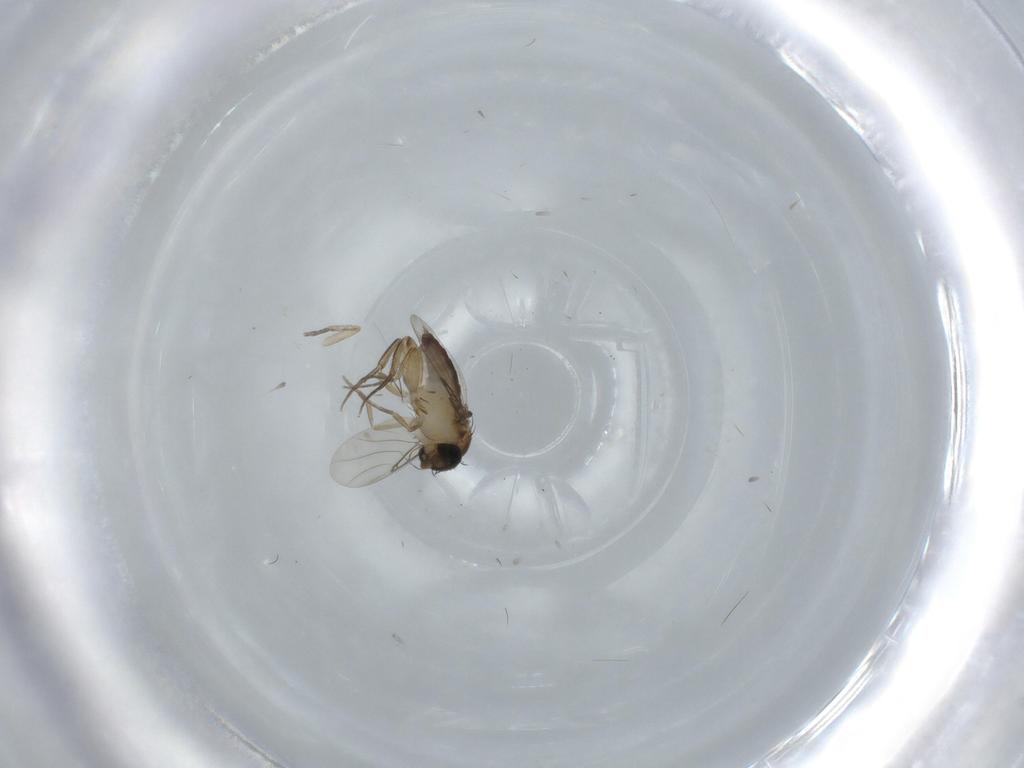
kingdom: Animalia
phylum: Arthropoda
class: Insecta
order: Diptera
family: Phoridae
